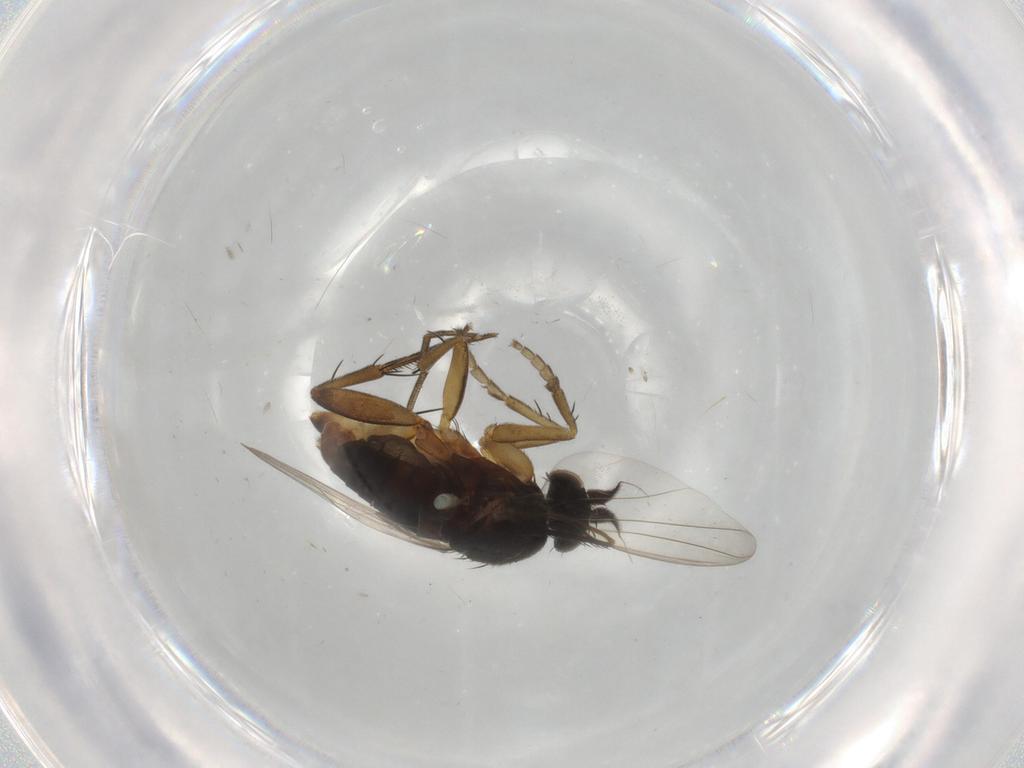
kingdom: Animalia
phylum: Arthropoda
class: Insecta
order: Diptera
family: Phoridae
